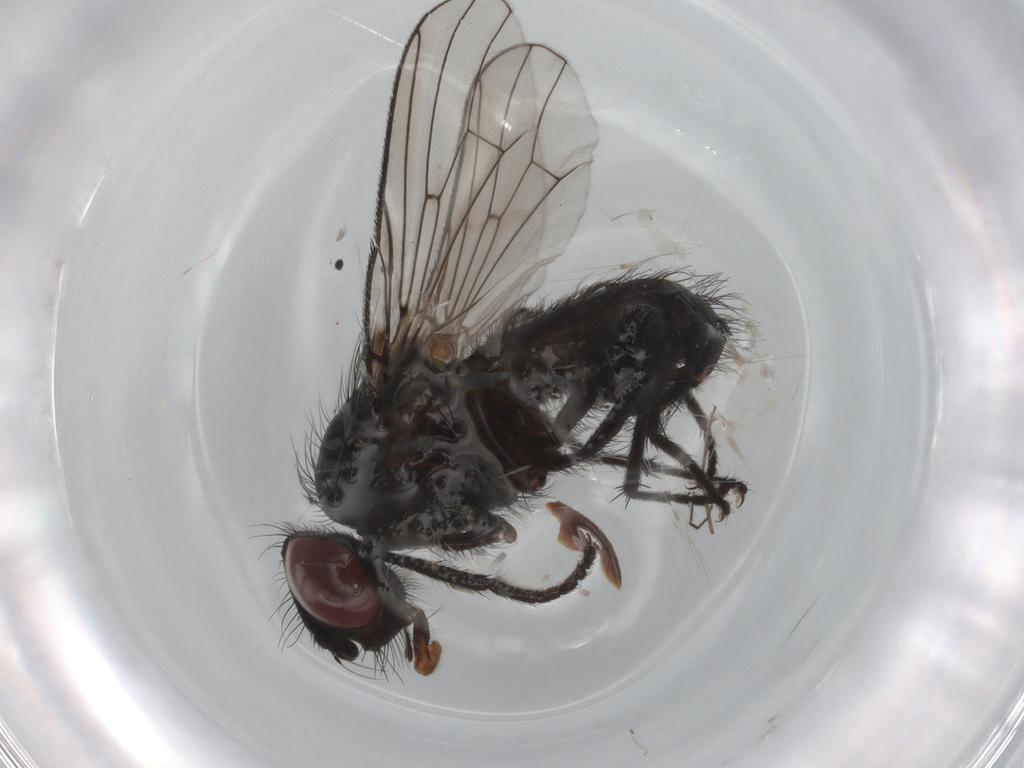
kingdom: Animalia
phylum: Arthropoda
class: Insecta
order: Diptera
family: Anthomyiidae
